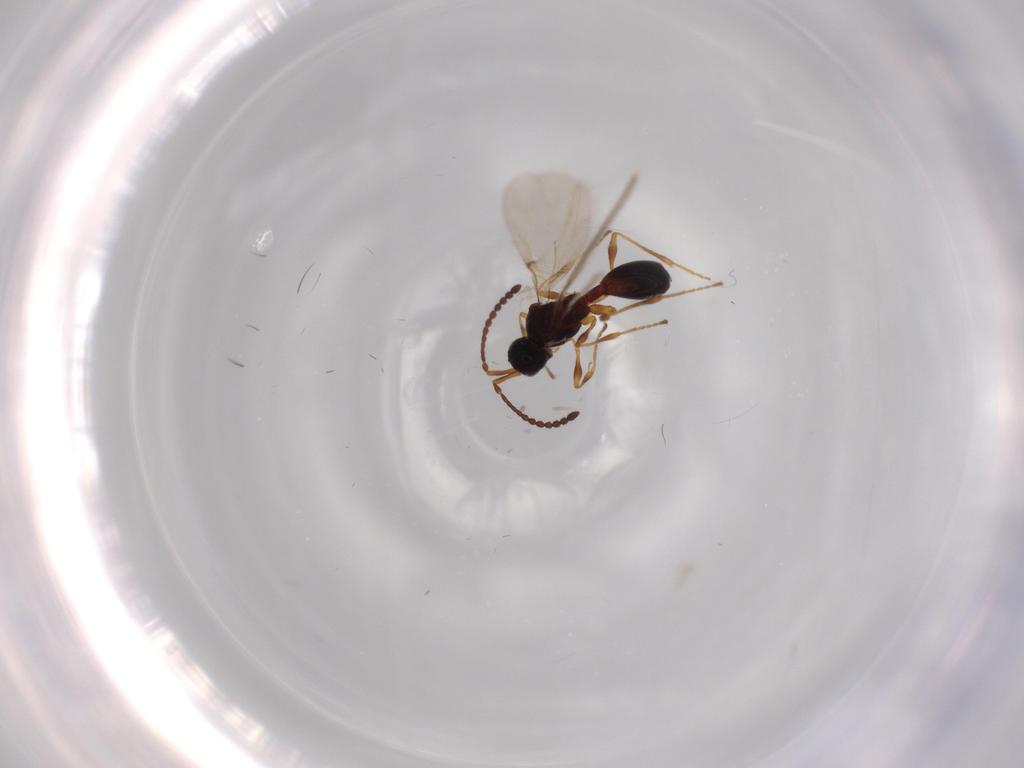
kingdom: Animalia
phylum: Arthropoda
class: Insecta
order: Hymenoptera
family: Diapriidae
